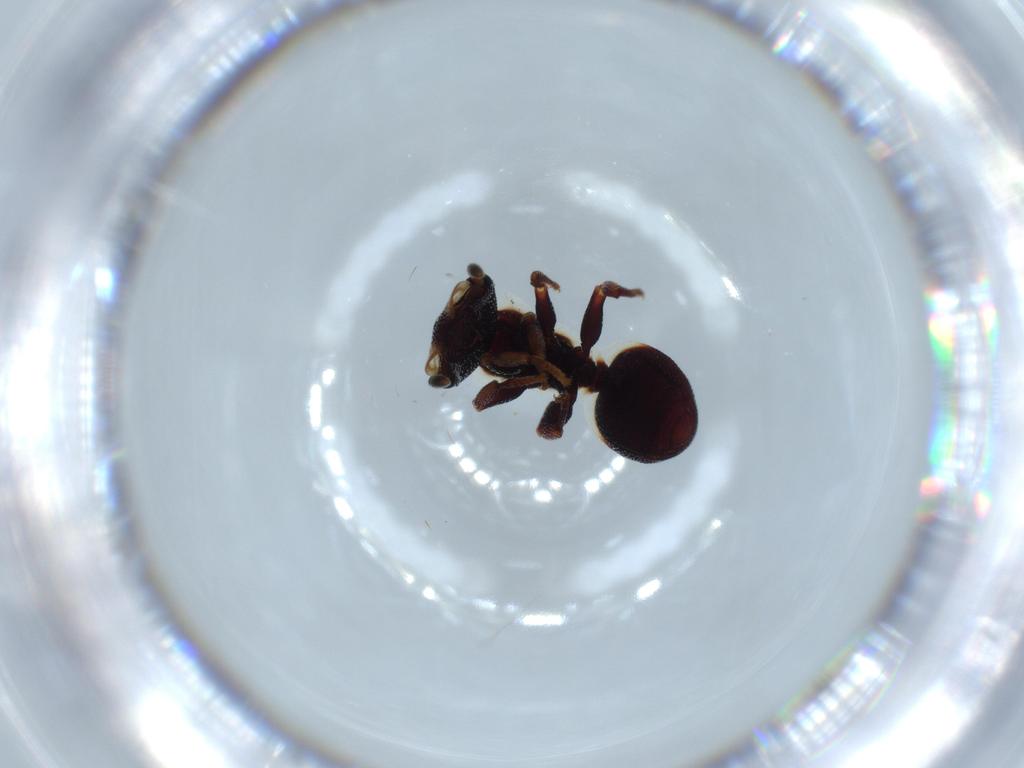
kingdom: Animalia
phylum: Arthropoda
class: Insecta
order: Hymenoptera
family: Formicidae
